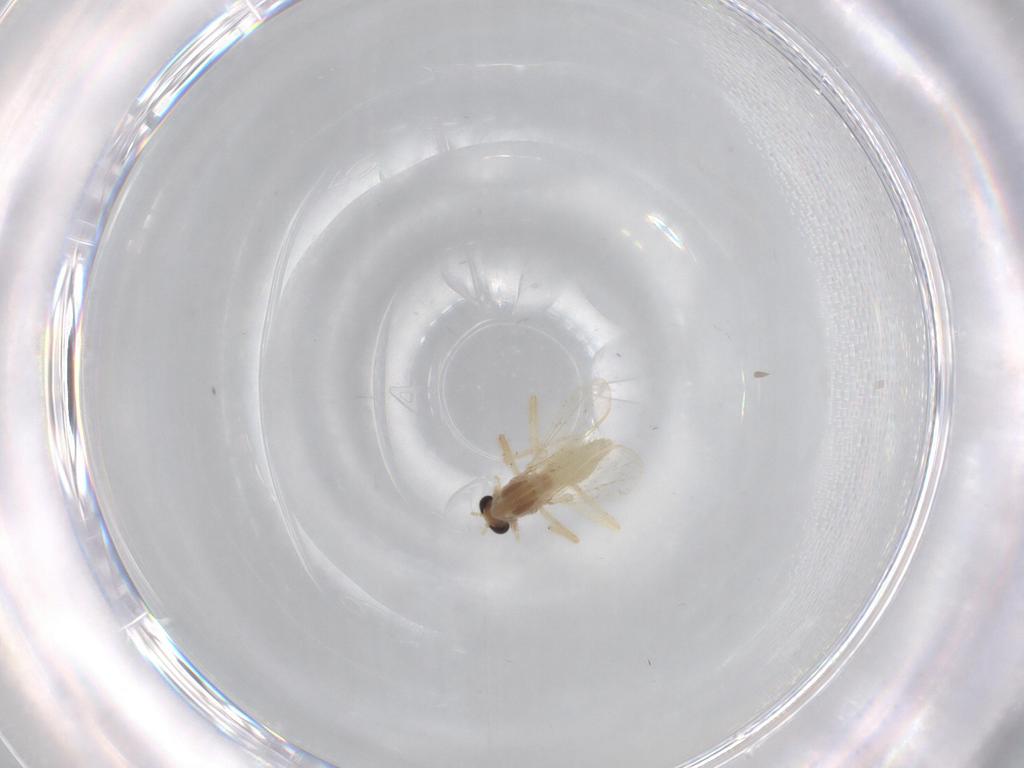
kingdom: Animalia
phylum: Arthropoda
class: Insecta
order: Diptera
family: Chironomidae
